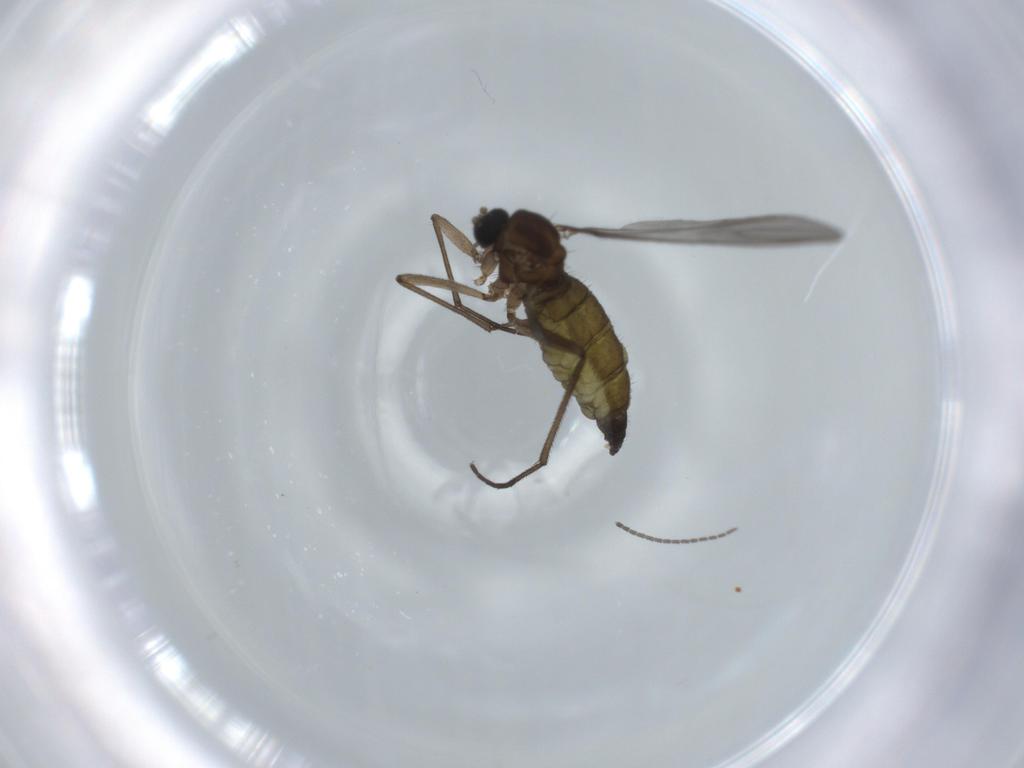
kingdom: Animalia
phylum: Arthropoda
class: Insecta
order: Diptera
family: Sciaridae
